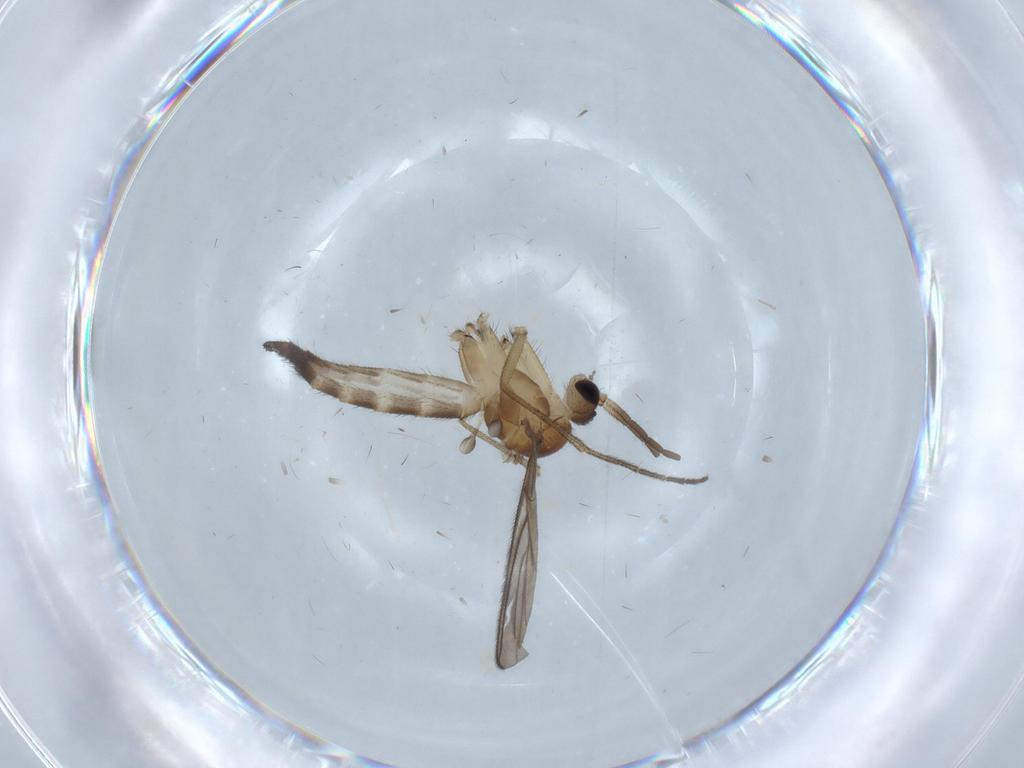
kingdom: Animalia
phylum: Arthropoda
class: Insecta
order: Diptera
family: Keroplatidae
